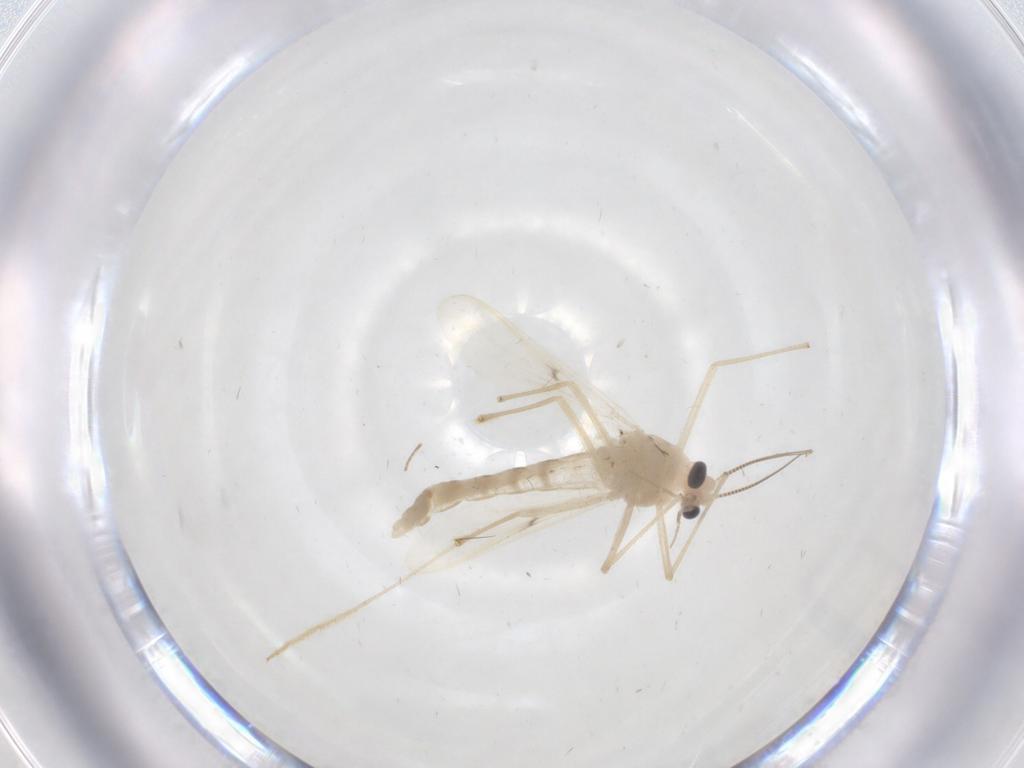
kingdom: Animalia
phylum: Arthropoda
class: Insecta
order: Diptera
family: Chironomidae
